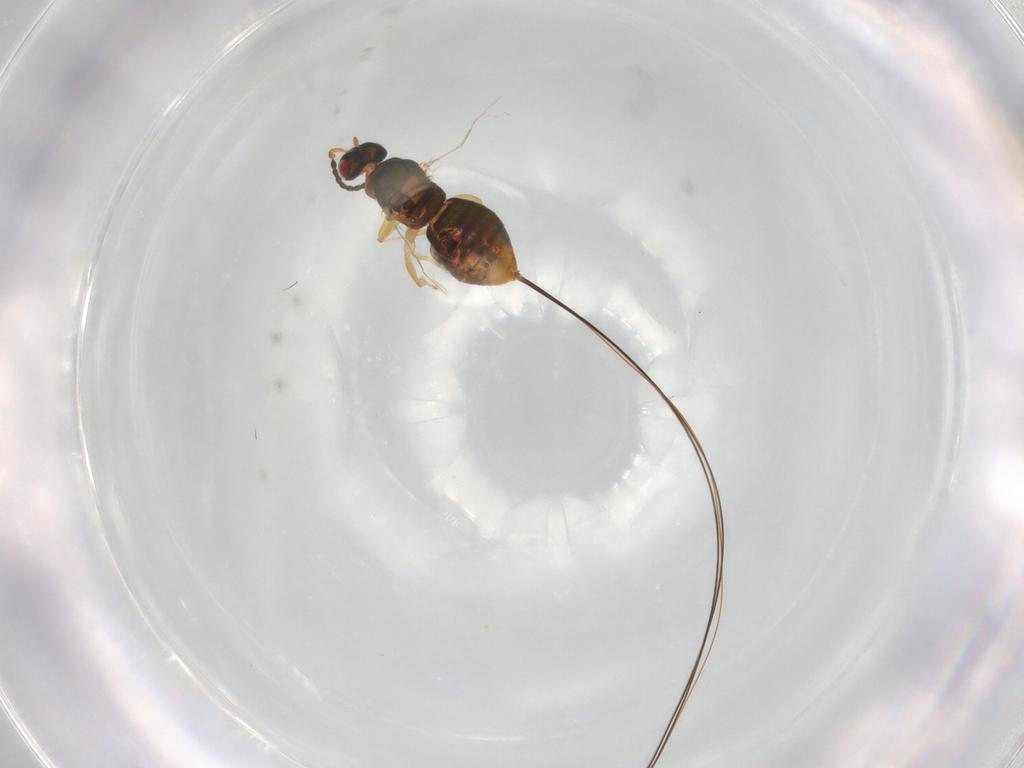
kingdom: Animalia
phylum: Arthropoda
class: Insecta
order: Hymenoptera
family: Agaonidae
